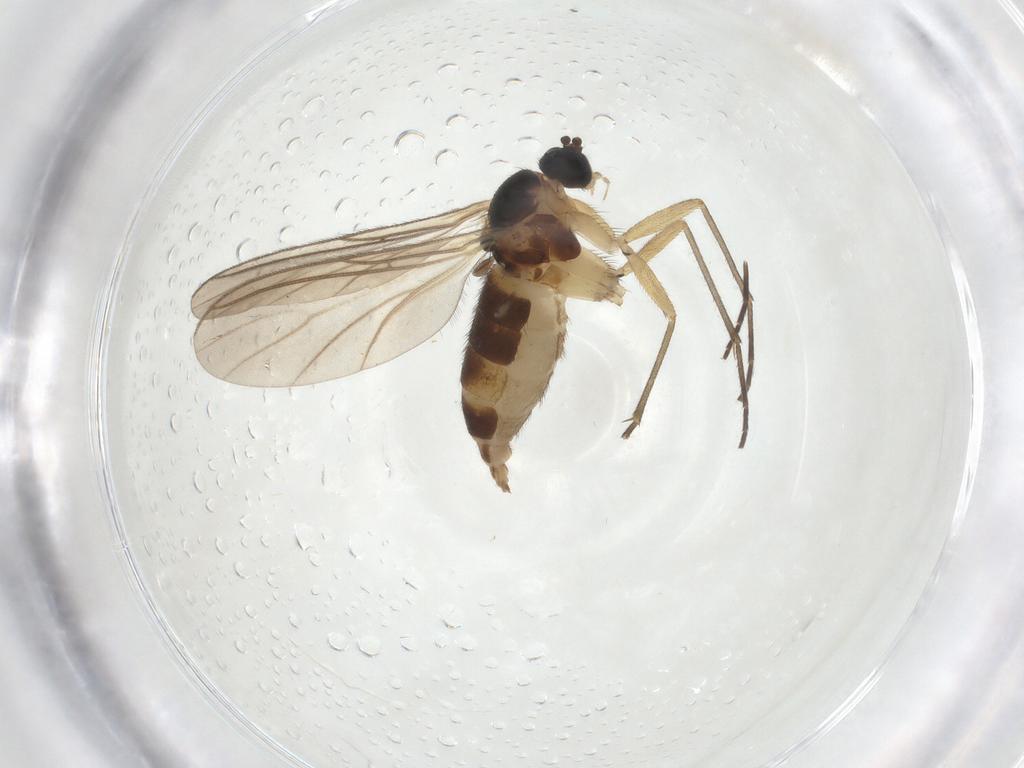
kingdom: Animalia
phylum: Arthropoda
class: Insecta
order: Diptera
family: Sciaridae
